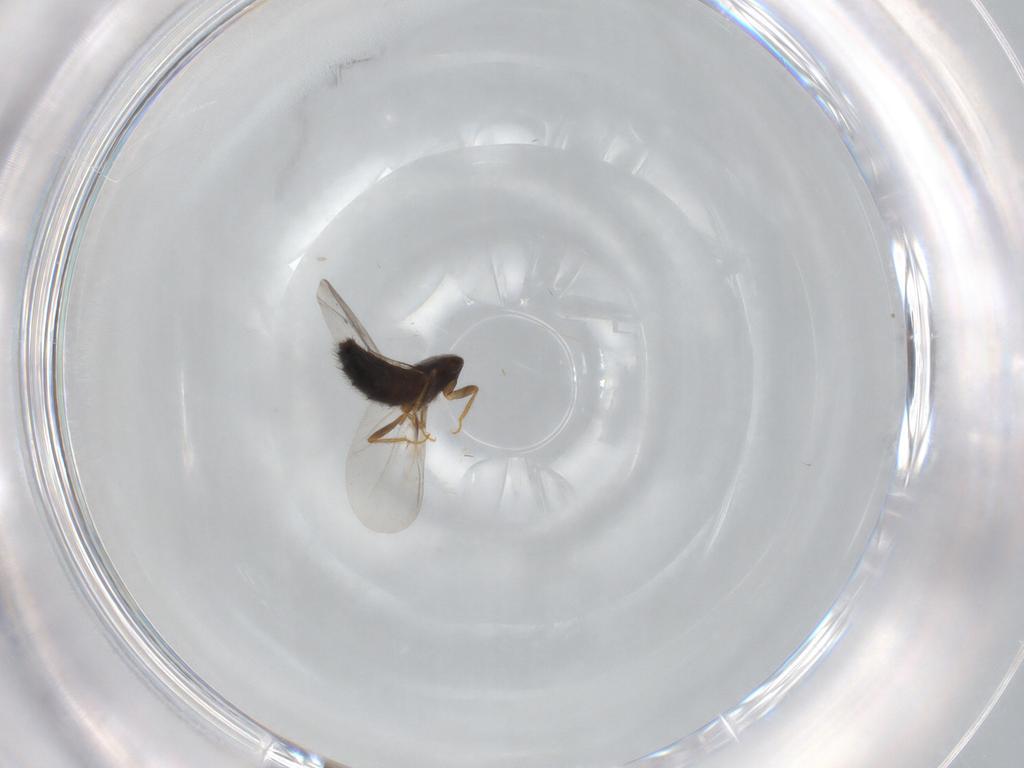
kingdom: Animalia
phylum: Arthropoda
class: Insecta
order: Coleoptera
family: Staphylinidae
